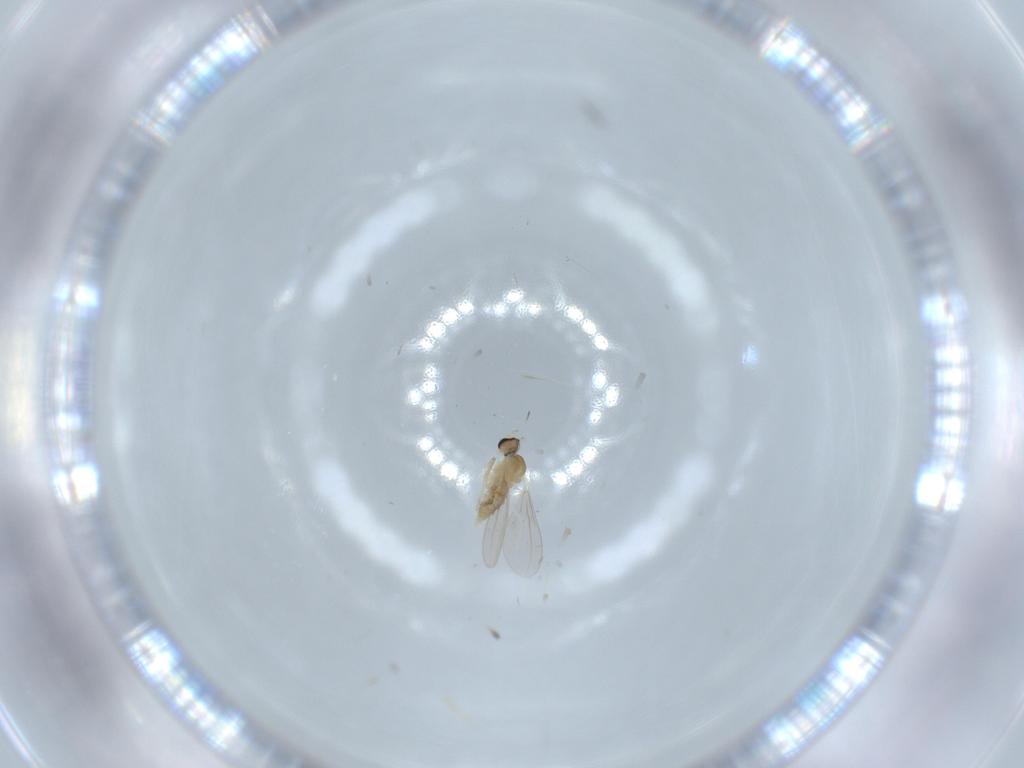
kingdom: Animalia
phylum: Arthropoda
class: Insecta
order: Diptera
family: Cecidomyiidae
